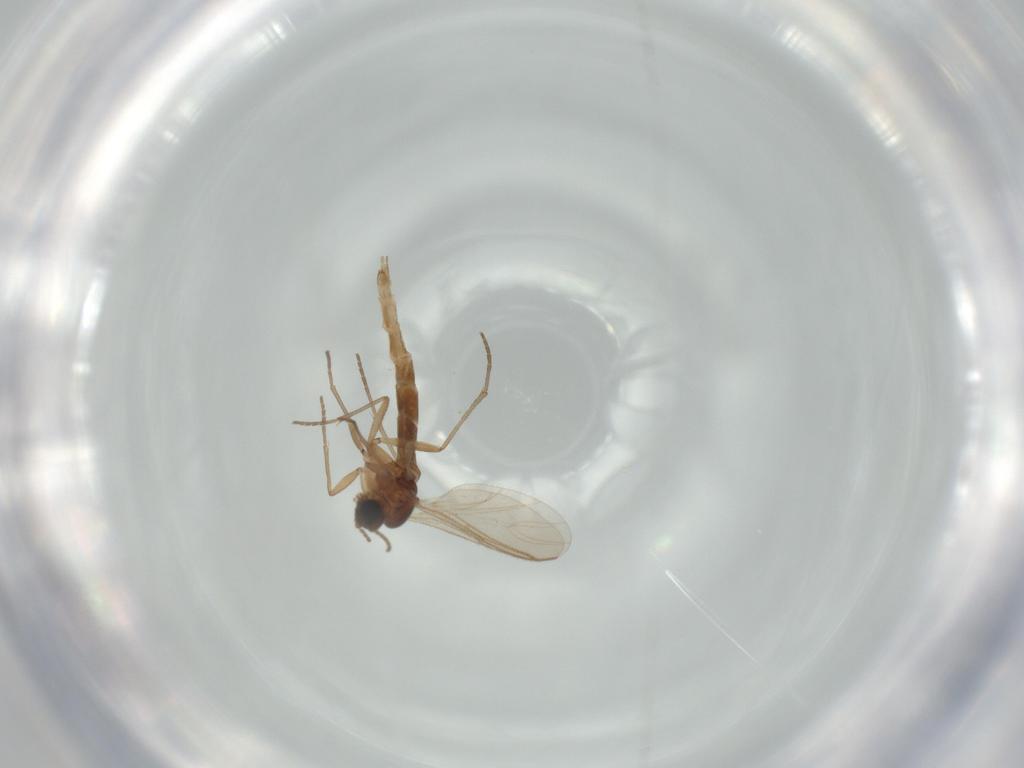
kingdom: Animalia
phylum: Arthropoda
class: Insecta
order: Diptera
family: Sciaridae
